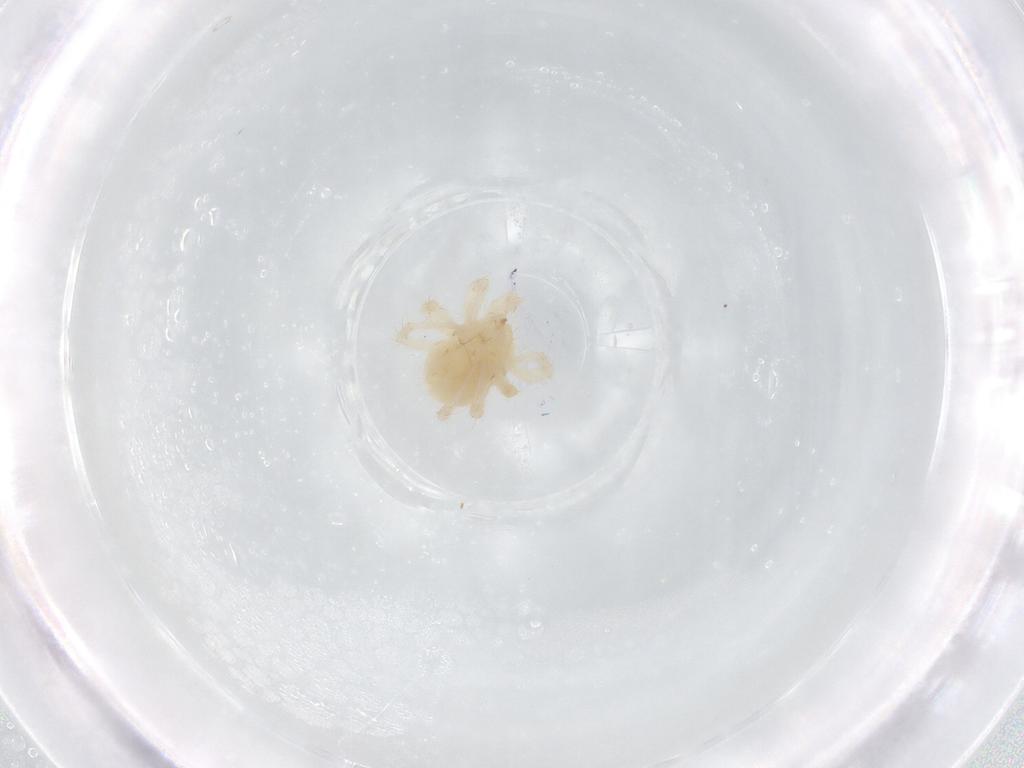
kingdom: Animalia
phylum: Arthropoda
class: Arachnida
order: Trombidiformes
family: Anystidae
